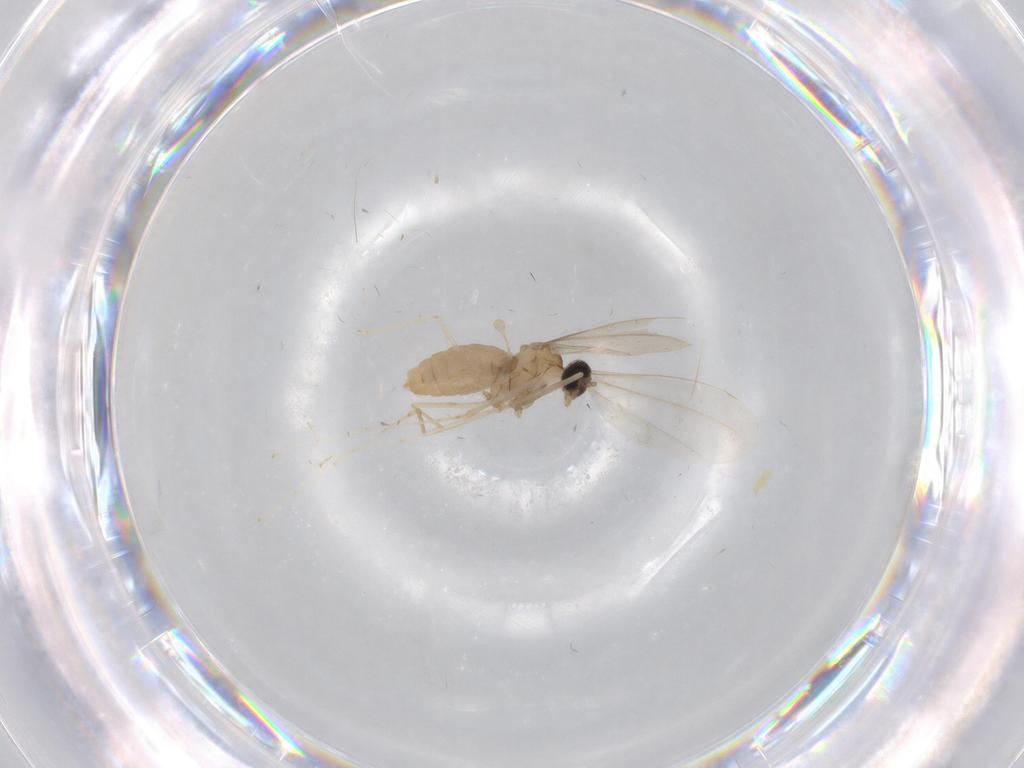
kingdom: Animalia
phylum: Arthropoda
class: Insecta
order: Diptera
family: Cecidomyiidae
